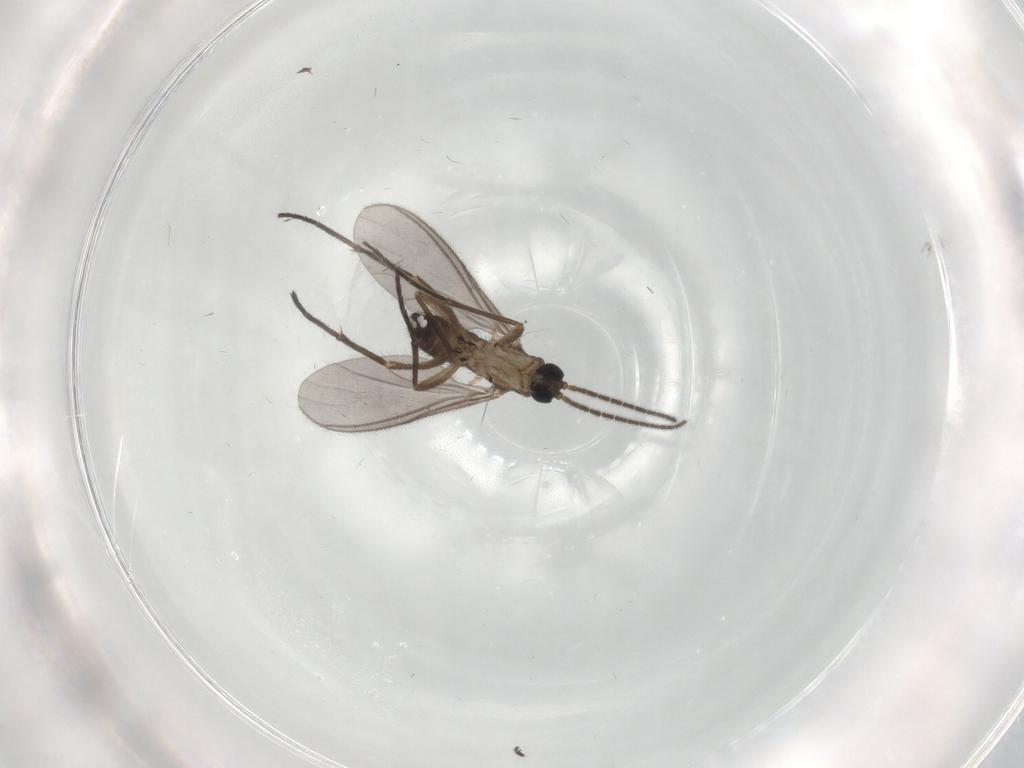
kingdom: Animalia
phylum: Arthropoda
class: Insecta
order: Diptera
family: Sciaridae
